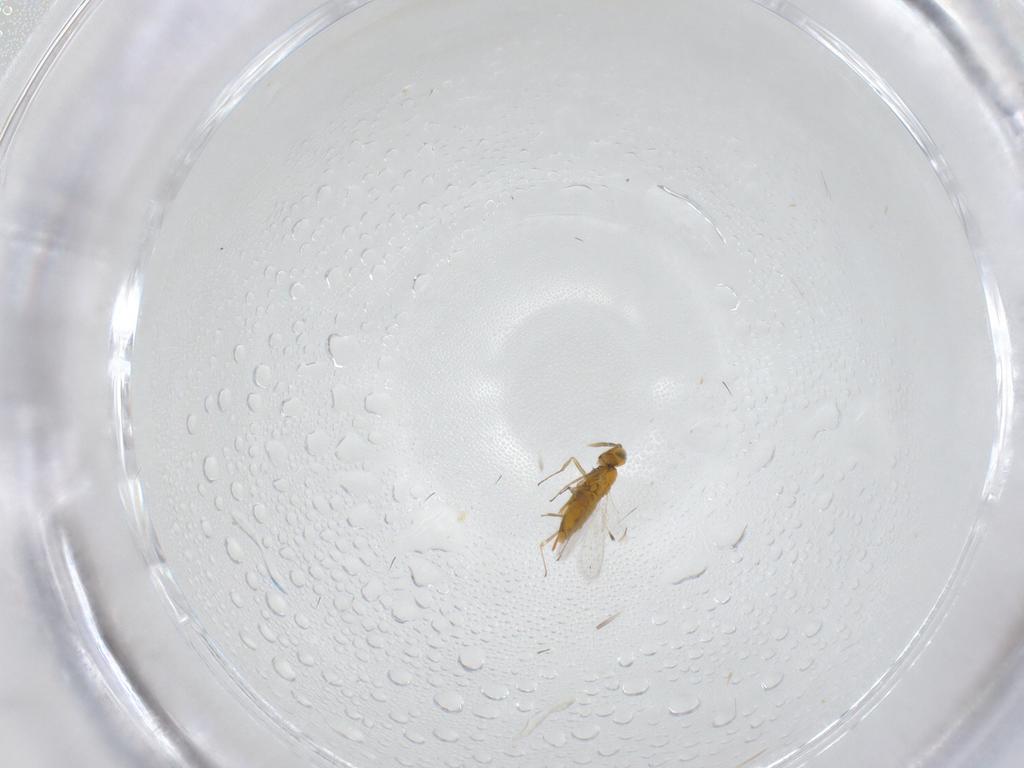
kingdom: Animalia
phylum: Arthropoda
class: Insecta
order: Hymenoptera
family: Aphelinidae
